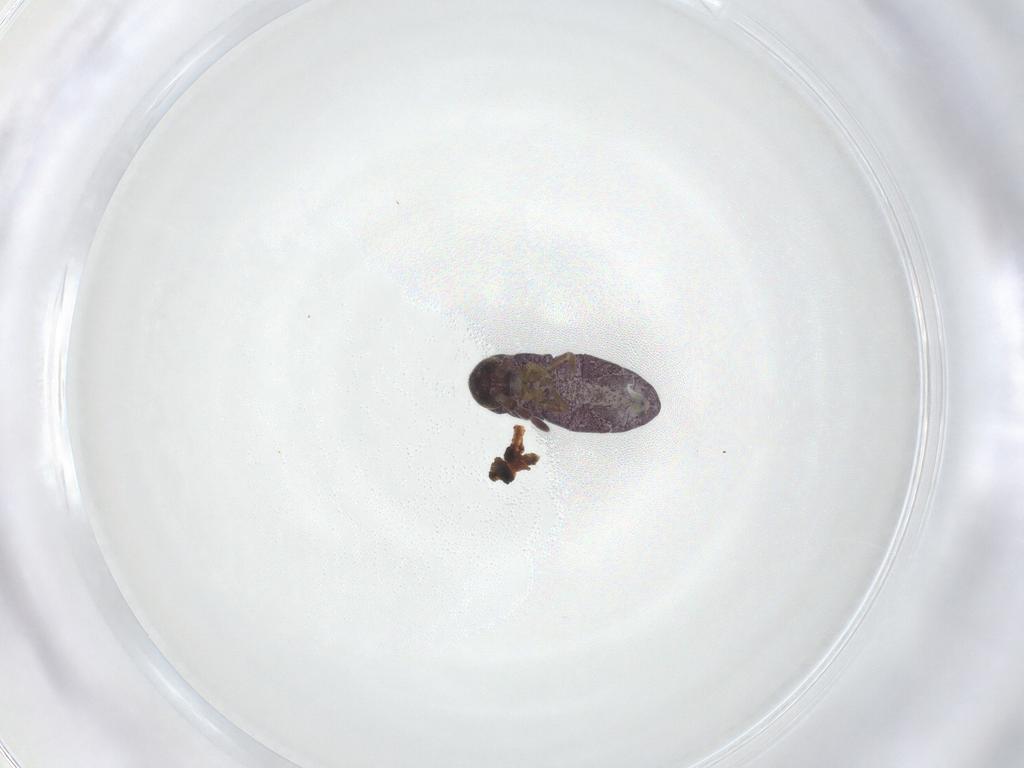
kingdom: Animalia
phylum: Arthropoda
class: Collembola
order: Entomobryomorpha
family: Isotomidae
